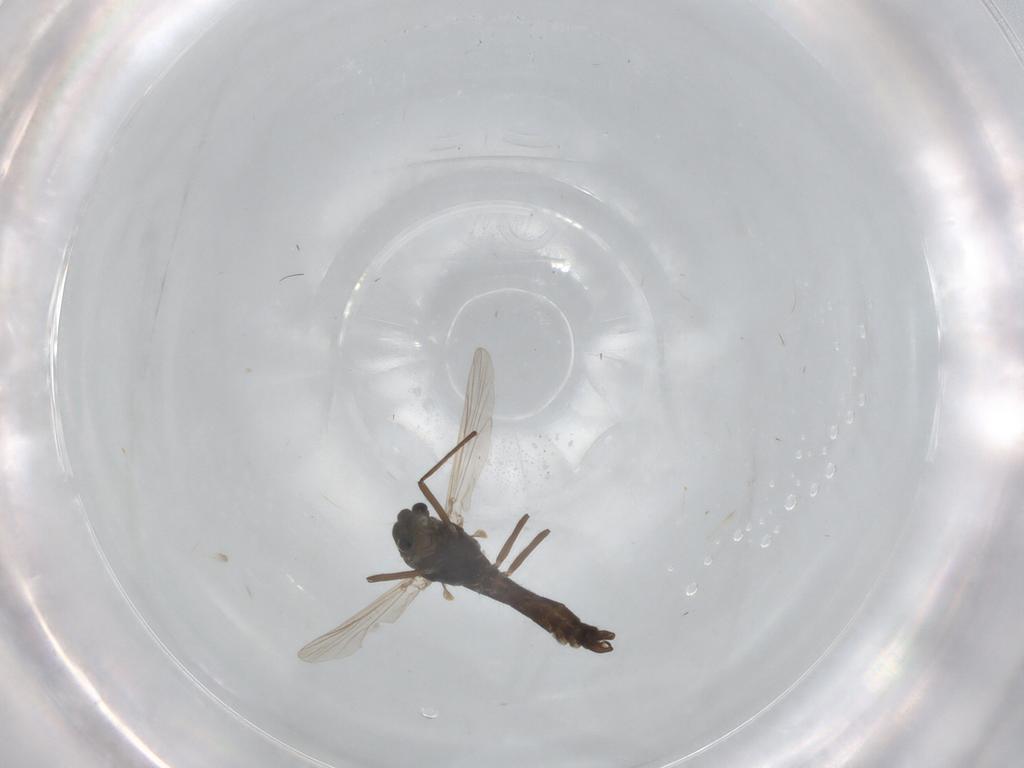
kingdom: Animalia
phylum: Arthropoda
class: Insecta
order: Diptera
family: Chironomidae
